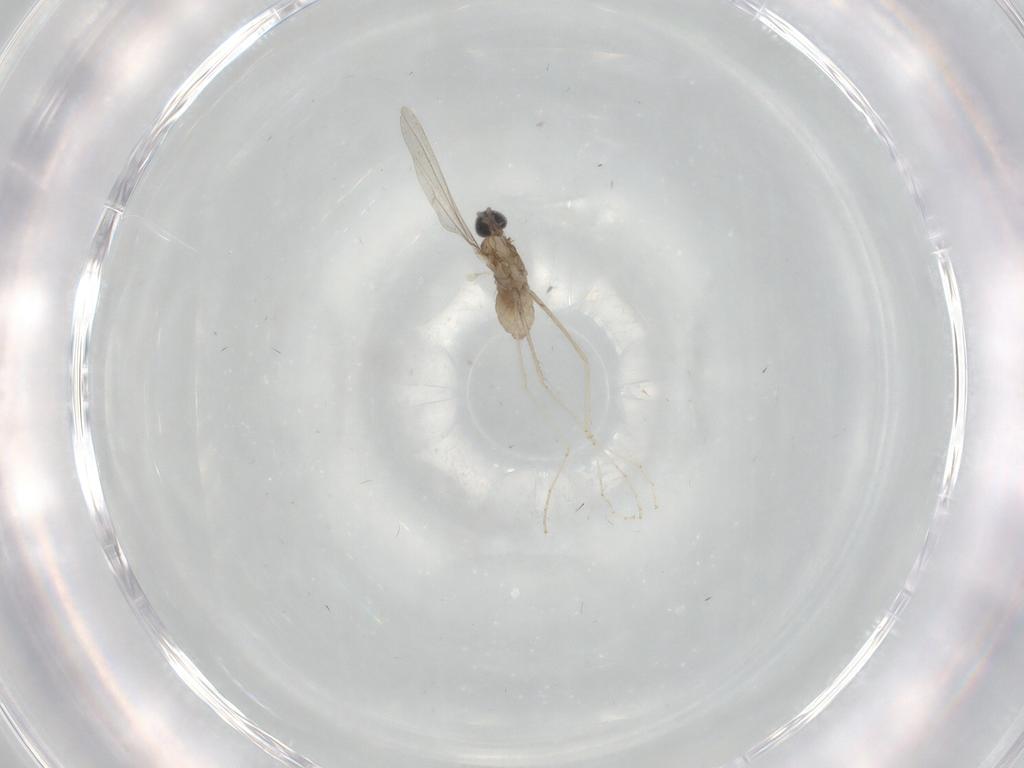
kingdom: Animalia
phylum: Arthropoda
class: Insecta
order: Diptera
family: Cecidomyiidae
